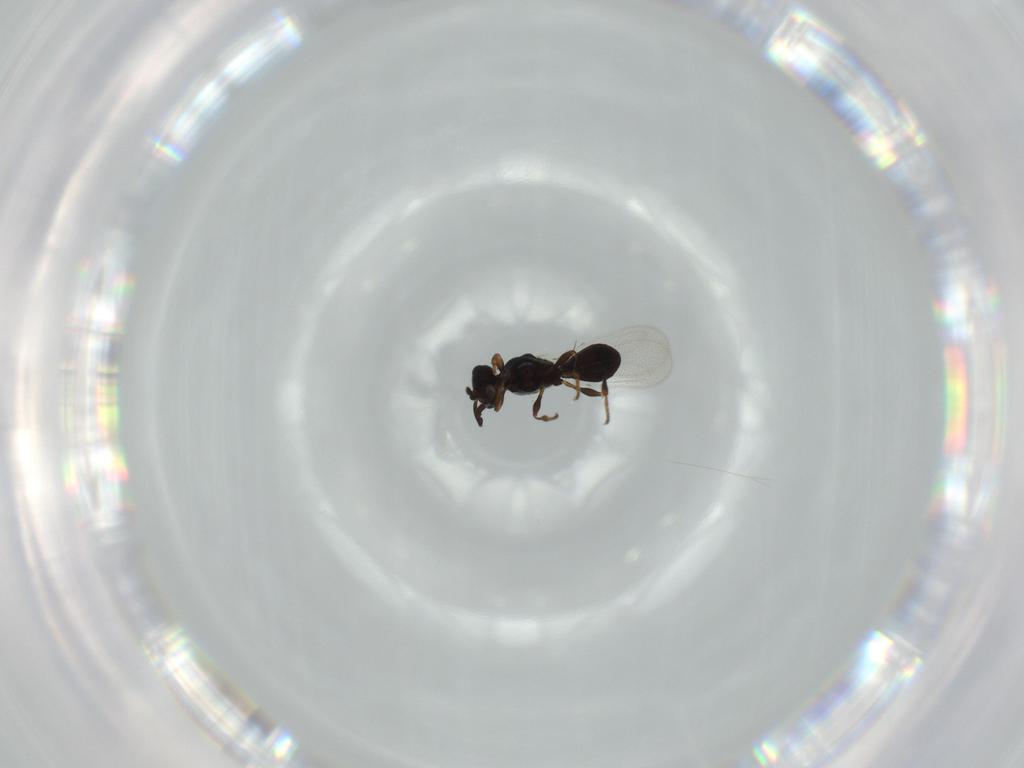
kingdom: Animalia
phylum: Arthropoda
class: Insecta
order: Hymenoptera
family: Platygastridae
